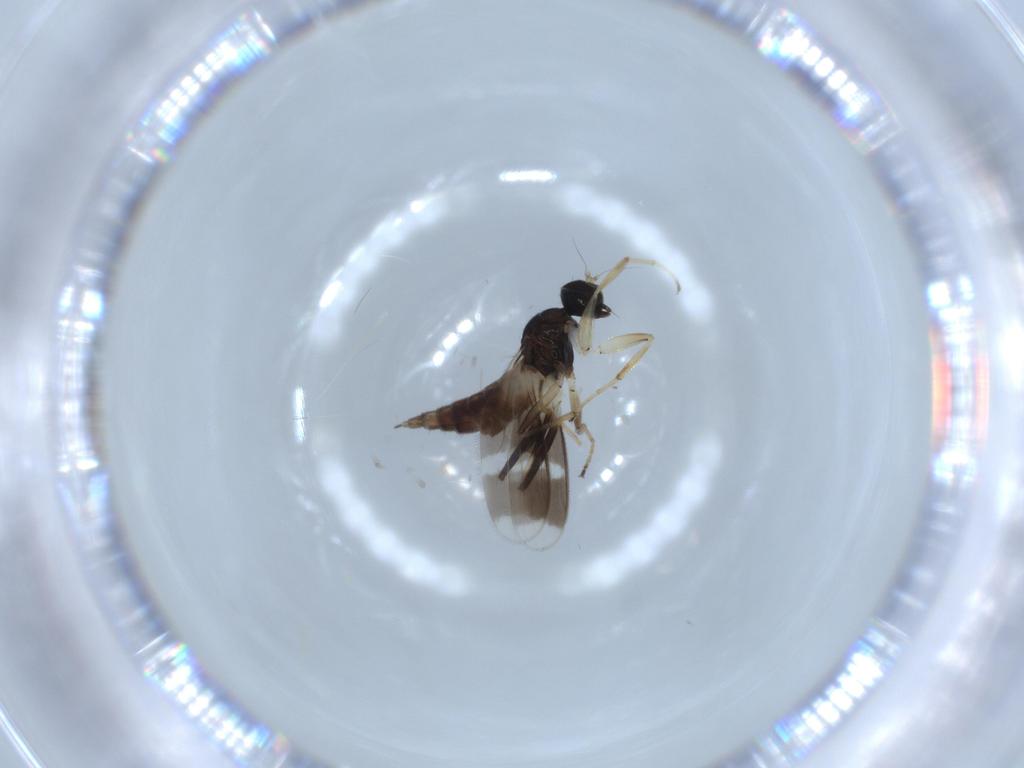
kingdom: Animalia
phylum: Arthropoda
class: Insecta
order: Diptera
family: Hybotidae
